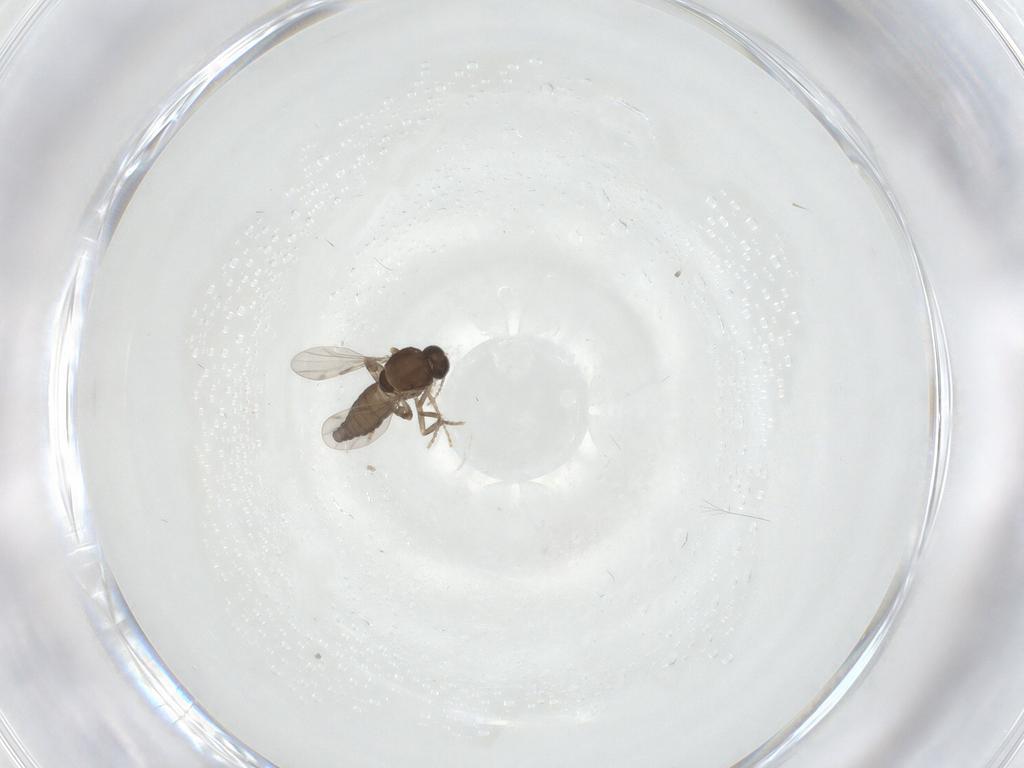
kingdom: Animalia
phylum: Arthropoda
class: Insecta
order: Diptera
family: Ceratopogonidae
